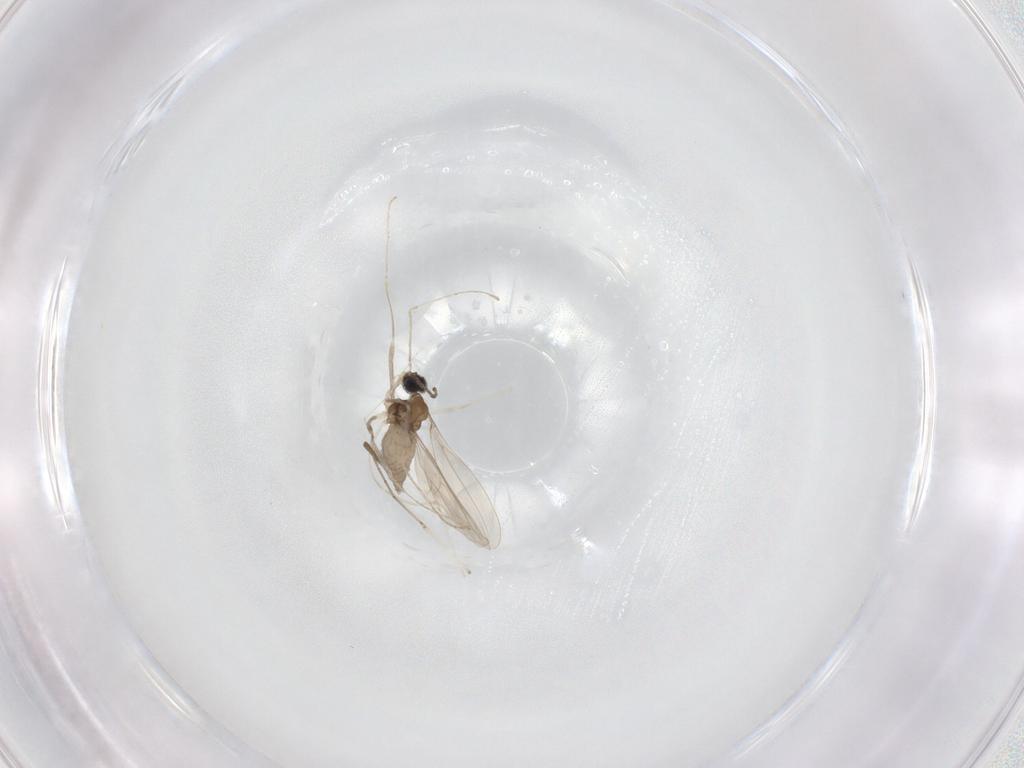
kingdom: Animalia
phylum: Arthropoda
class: Insecta
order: Diptera
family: Cecidomyiidae
